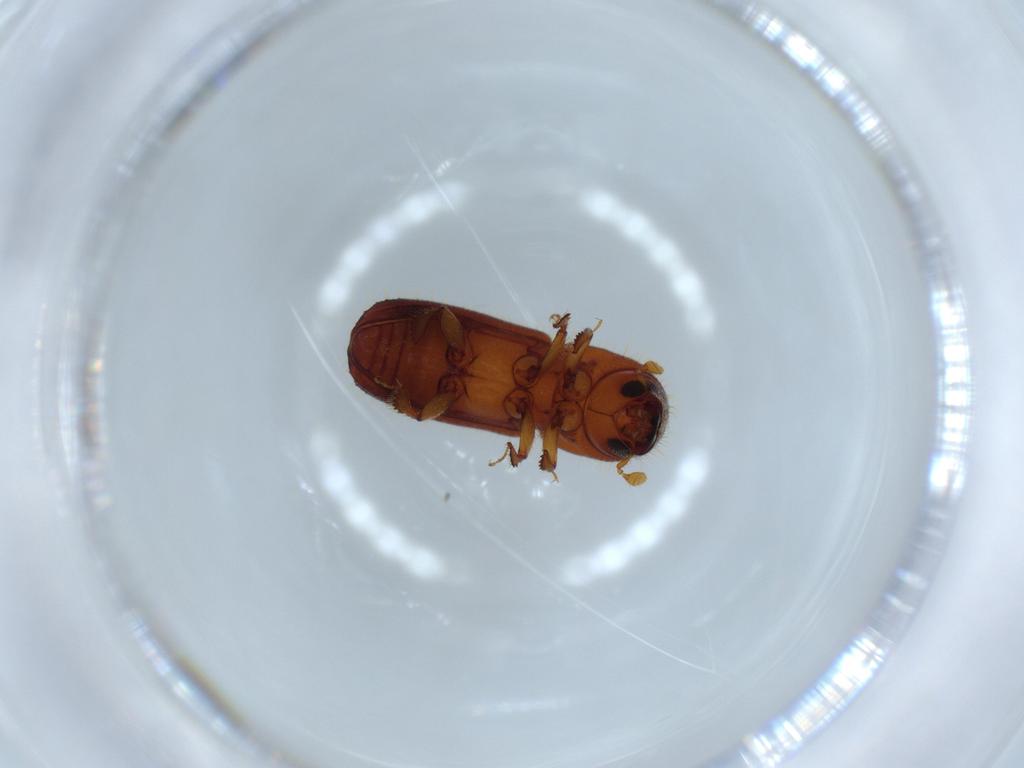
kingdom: Animalia
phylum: Arthropoda
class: Insecta
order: Coleoptera
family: Curculionidae
